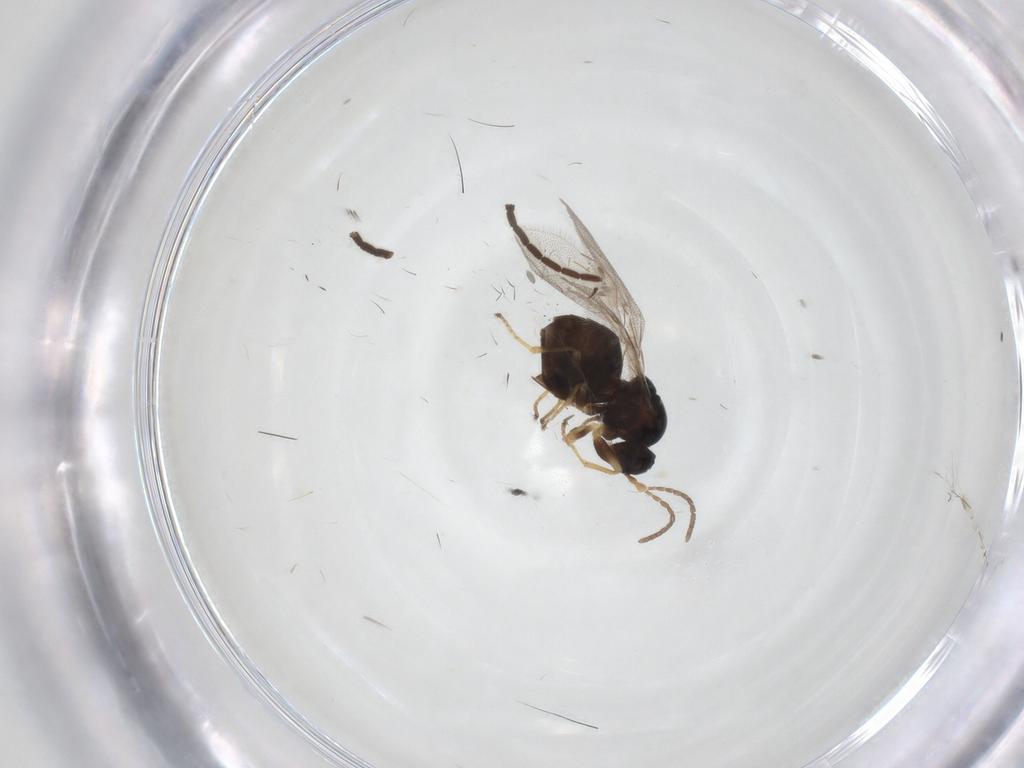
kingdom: Animalia
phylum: Arthropoda
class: Insecta
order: Hymenoptera
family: Cynipidae
